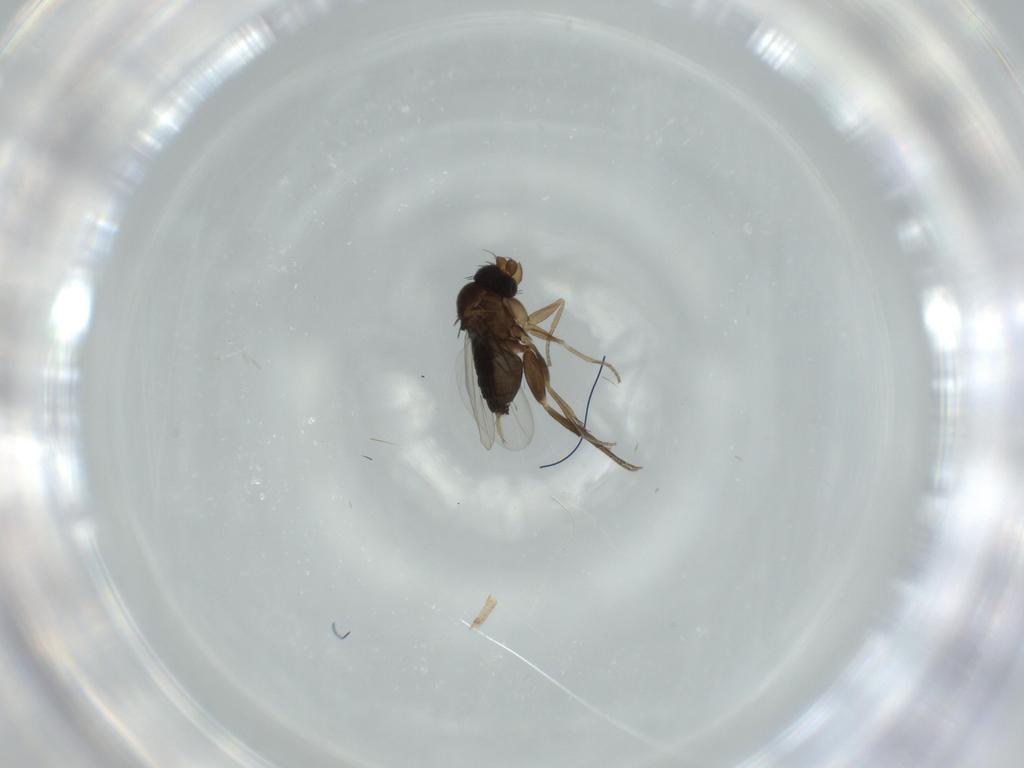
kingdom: Animalia
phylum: Arthropoda
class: Insecta
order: Diptera
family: Phoridae
